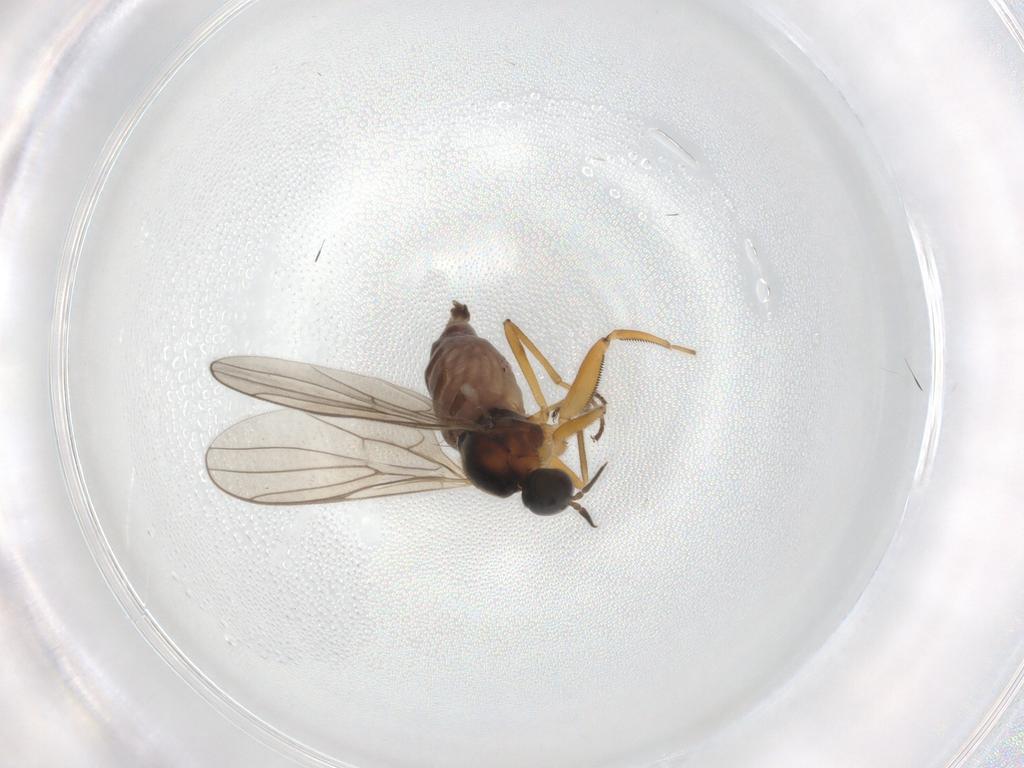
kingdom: Animalia
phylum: Arthropoda
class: Insecta
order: Diptera
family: Hybotidae
